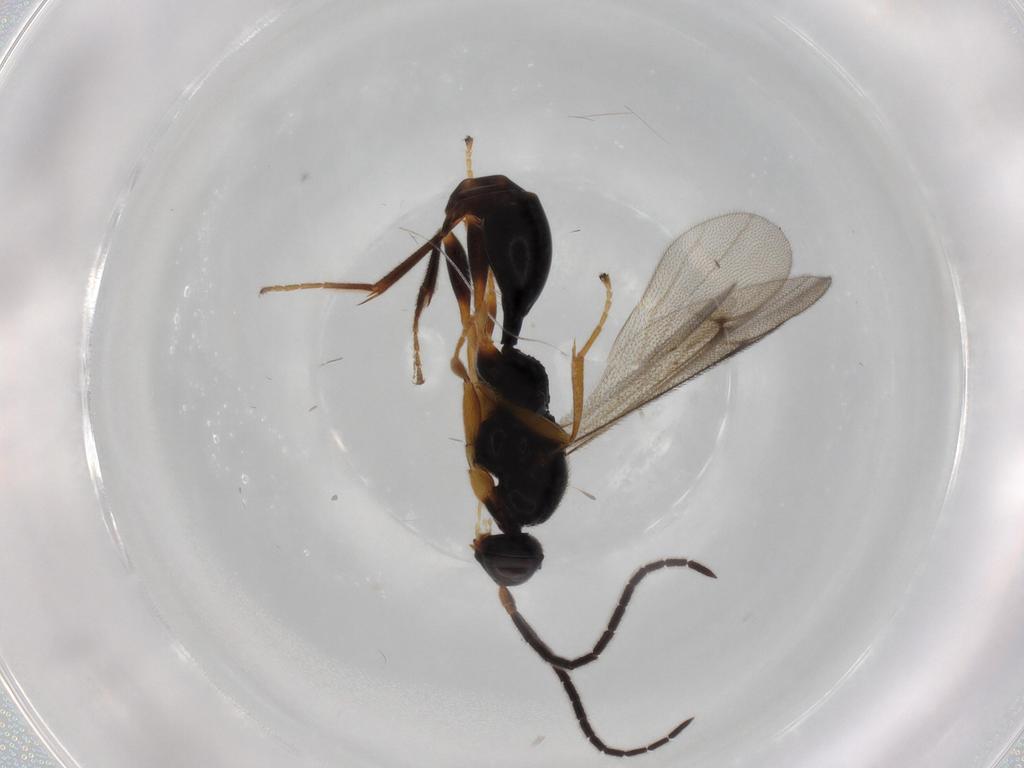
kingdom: Animalia
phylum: Arthropoda
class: Insecta
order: Hymenoptera
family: Proctotrupidae
